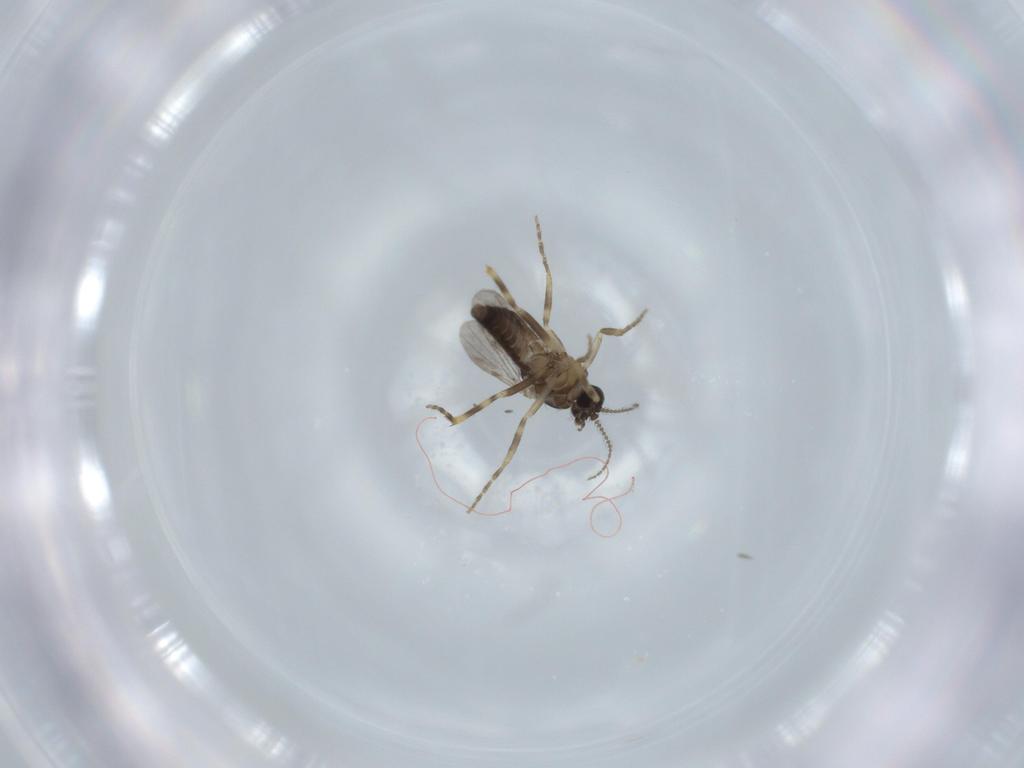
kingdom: Animalia
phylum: Arthropoda
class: Insecta
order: Diptera
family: Ceratopogonidae
